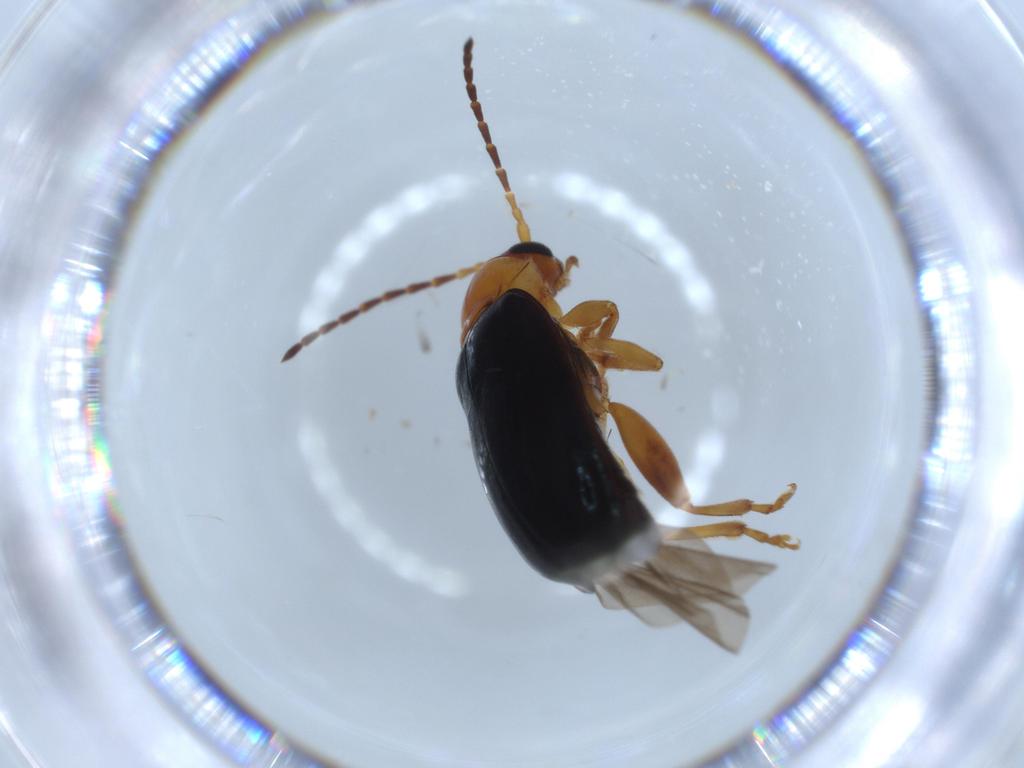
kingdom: Animalia
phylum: Arthropoda
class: Insecta
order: Coleoptera
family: Chrysomelidae
